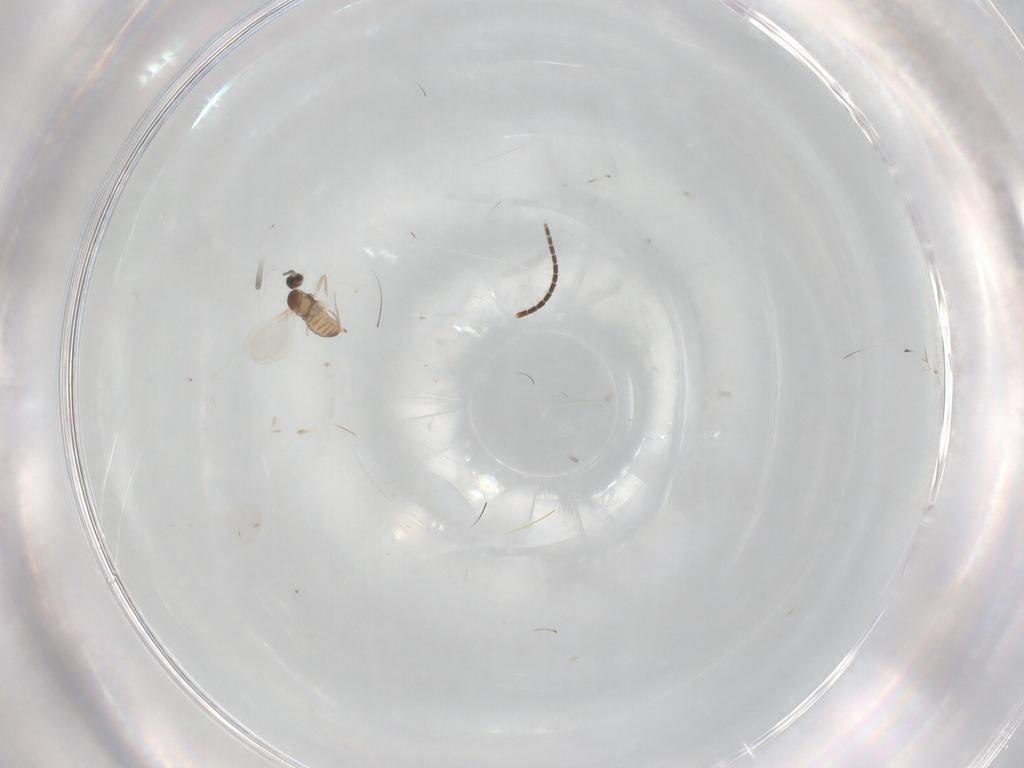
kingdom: Animalia
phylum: Arthropoda
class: Insecta
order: Diptera
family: Cecidomyiidae
